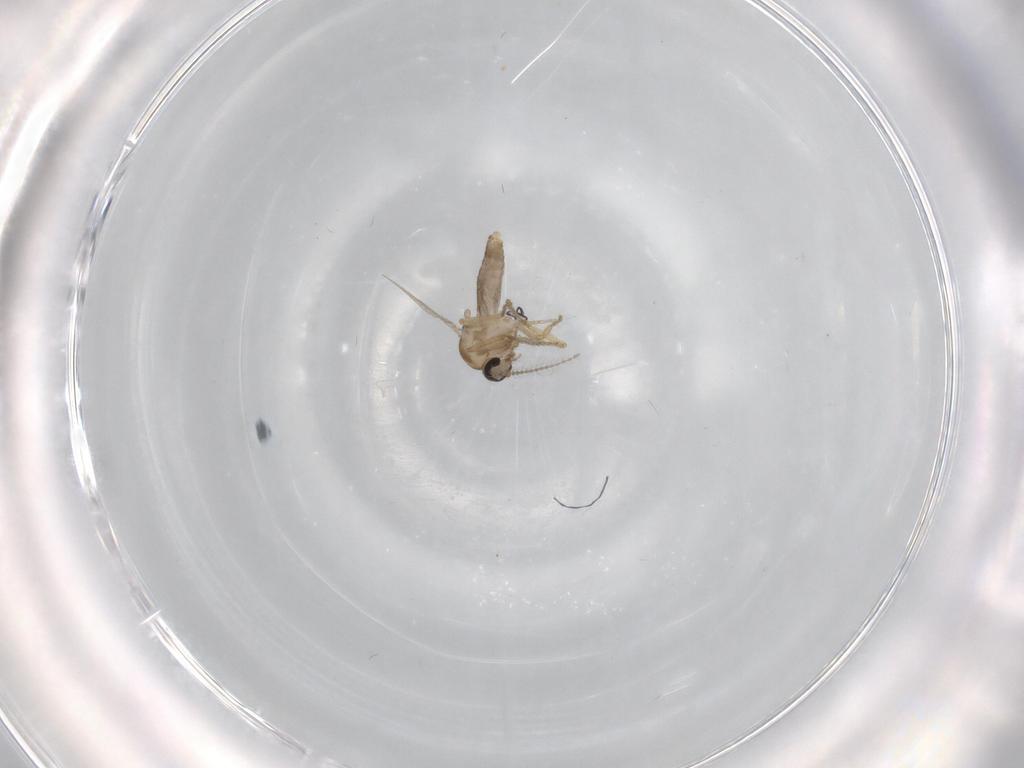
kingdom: Animalia
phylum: Arthropoda
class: Insecta
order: Diptera
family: Ceratopogonidae
